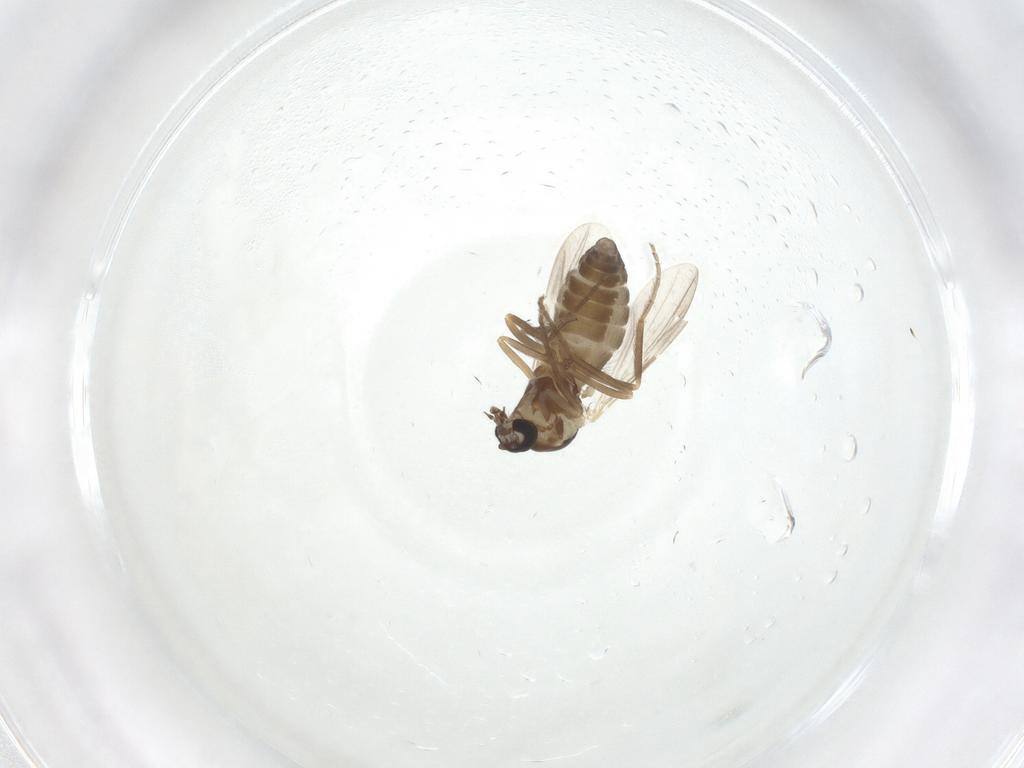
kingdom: Animalia
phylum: Arthropoda
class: Insecta
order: Diptera
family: Ceratopogonidae
